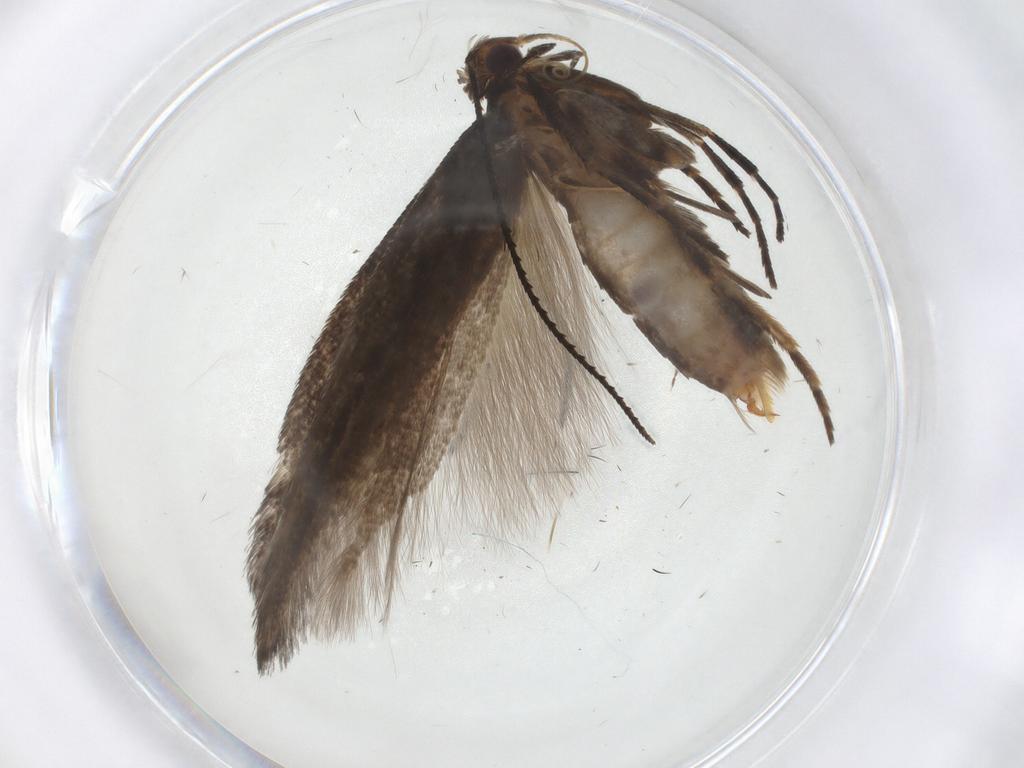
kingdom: Animalia
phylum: Arthropoda
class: Insecta
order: Lepidoptera
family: Gelechiidae
